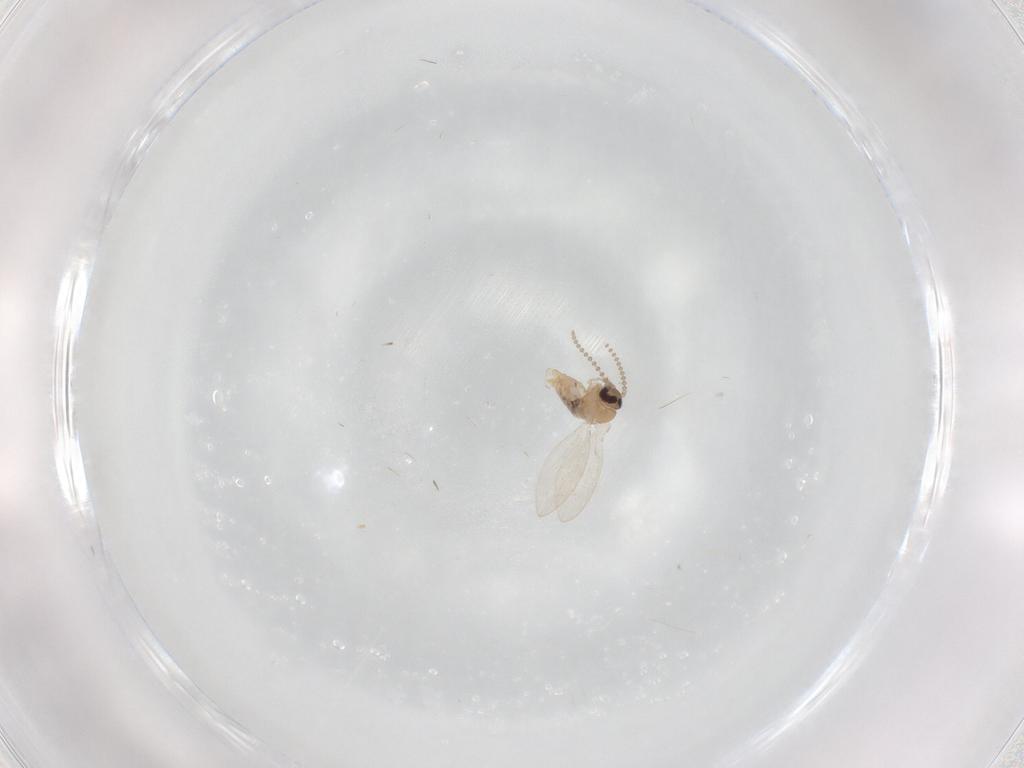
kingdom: Animalia
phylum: Arthropoda
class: Insecta
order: Diptera
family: Psychodidae
